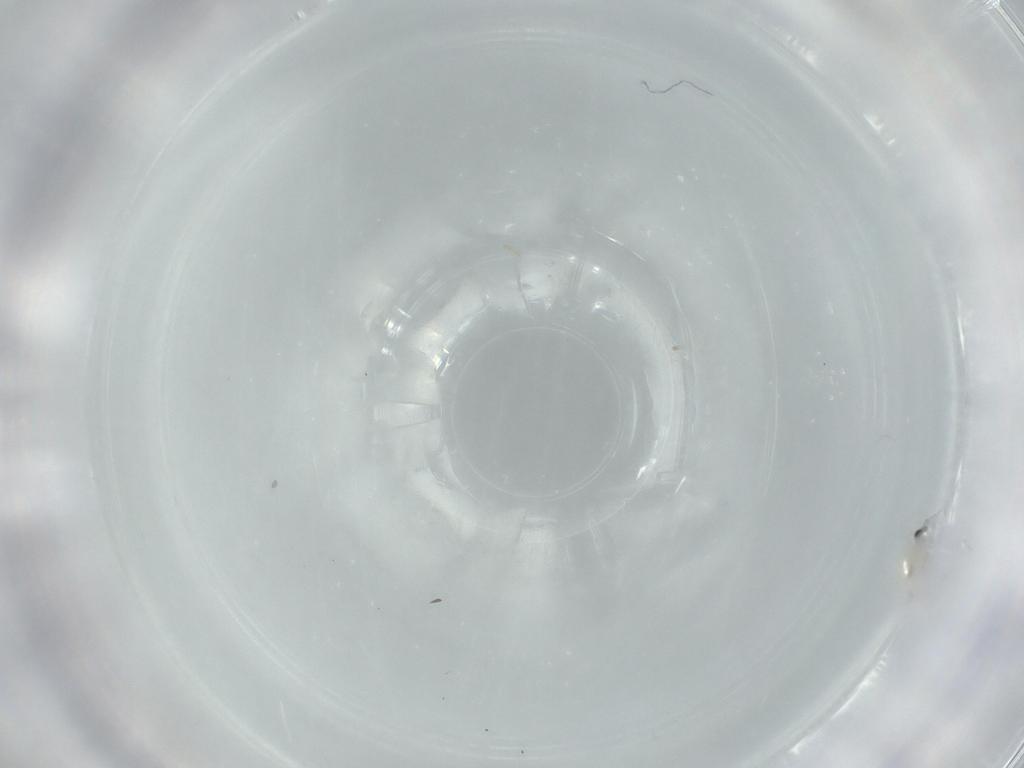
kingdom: Animalia
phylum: Arthropoda
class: Insecta
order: Diptera
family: Cecidomyiidae
